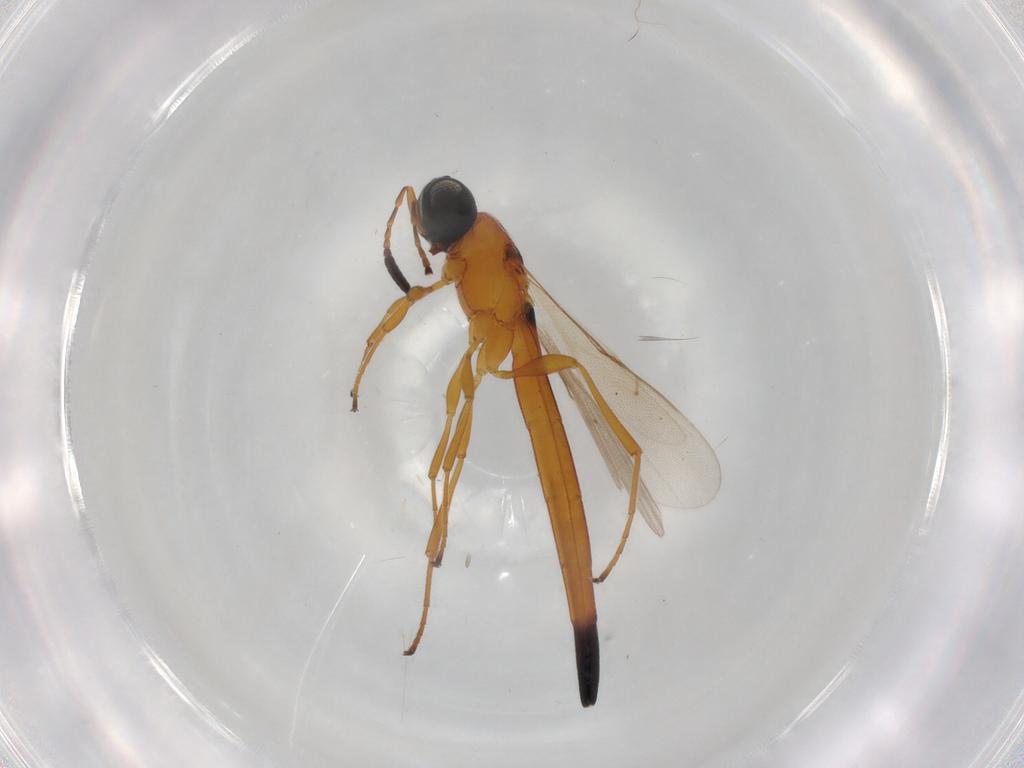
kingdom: Animalia
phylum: Arthropoda
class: Insecta
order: Hymenoptera
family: Scelionidae
